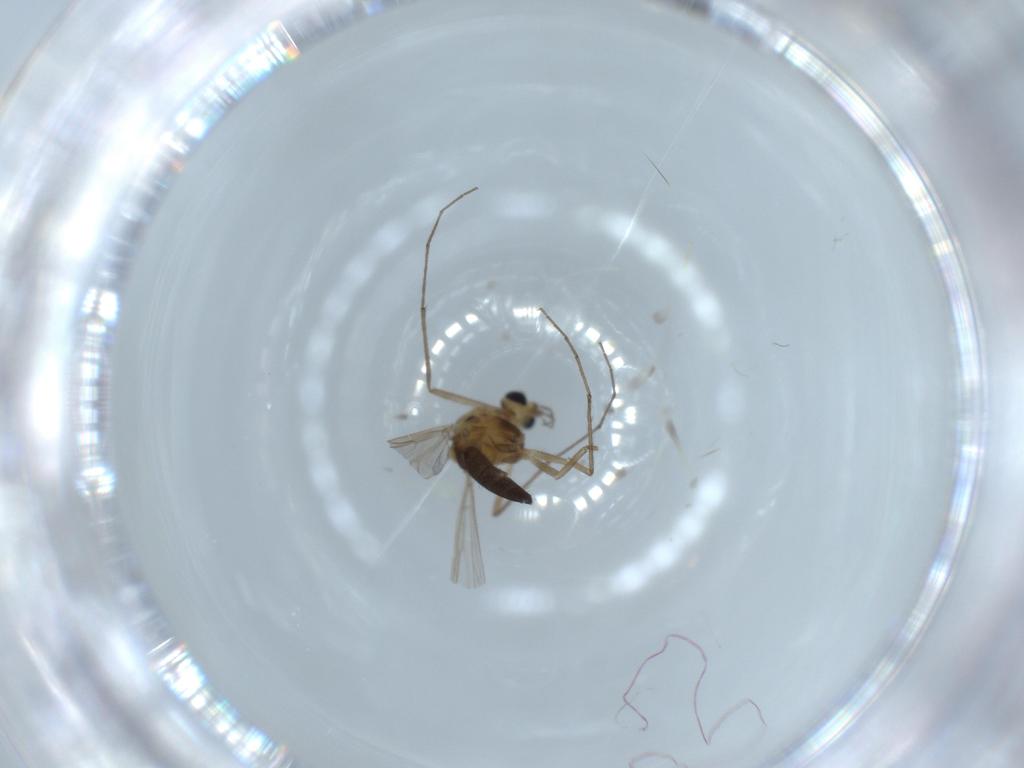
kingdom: Animalia
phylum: Arthropoda
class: Insecta
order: Diptera
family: Chironomidae
